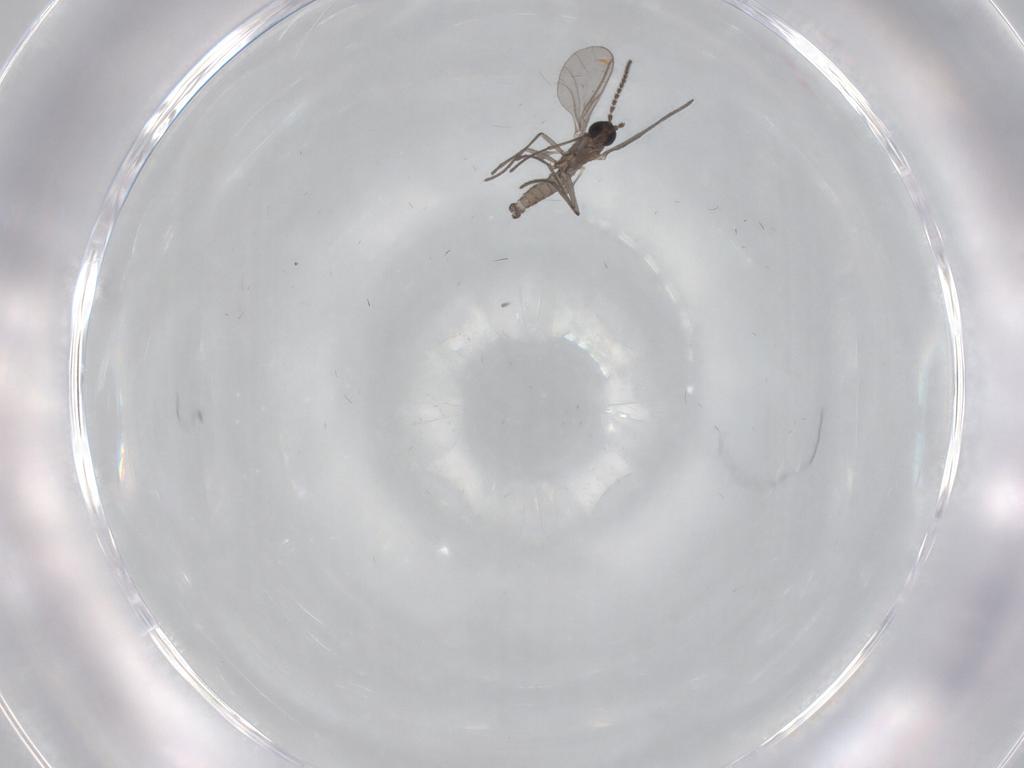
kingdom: Animalia
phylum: Arthropoda
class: Insecta
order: Diptera
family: Sciaridae
